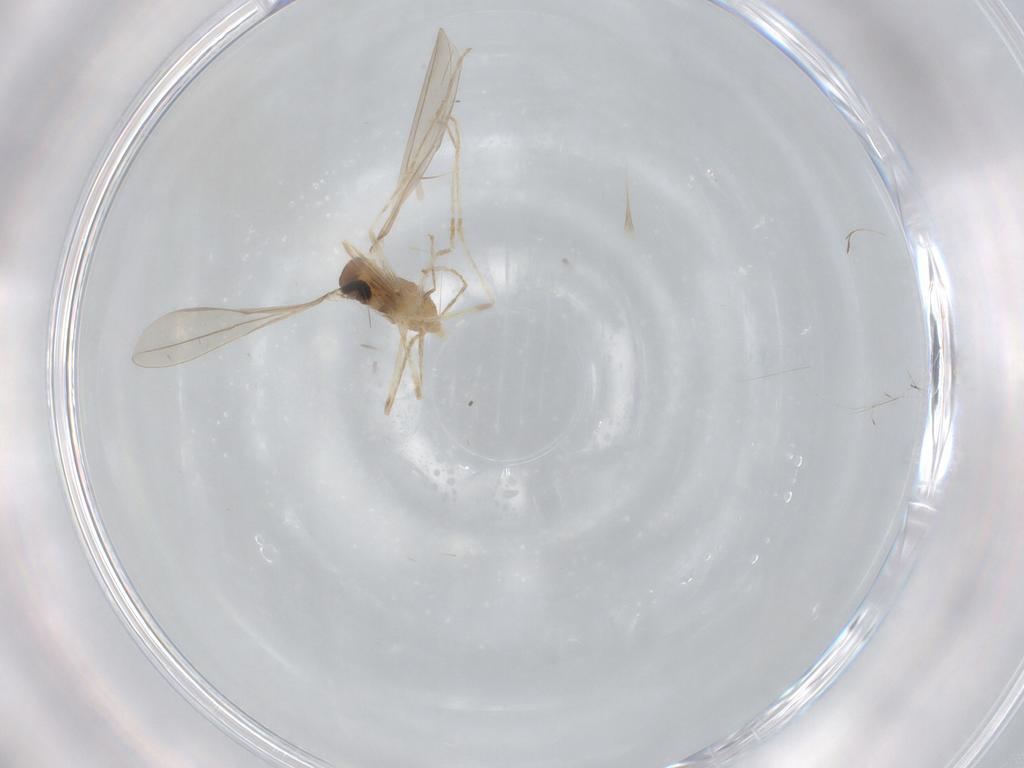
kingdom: Animalia
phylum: Arthropoda
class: Insecta
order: Diptera
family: Cecidomyiidae
